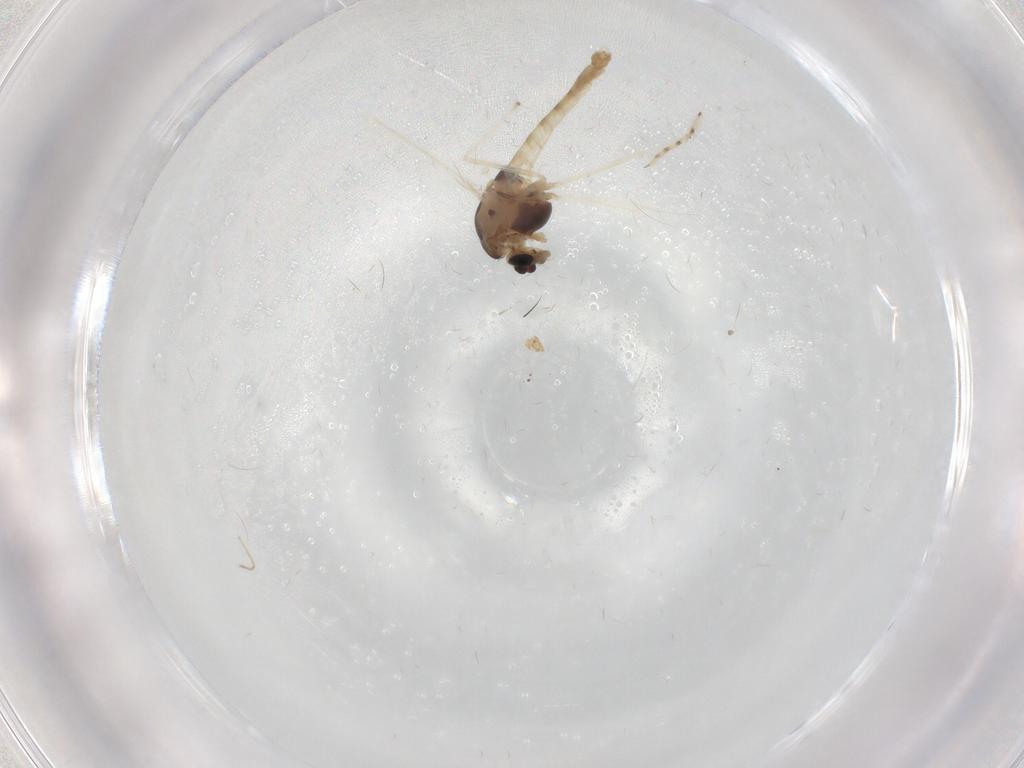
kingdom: Animalia
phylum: Arthropoda
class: Insecta
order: Diptera
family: Chironomidae
